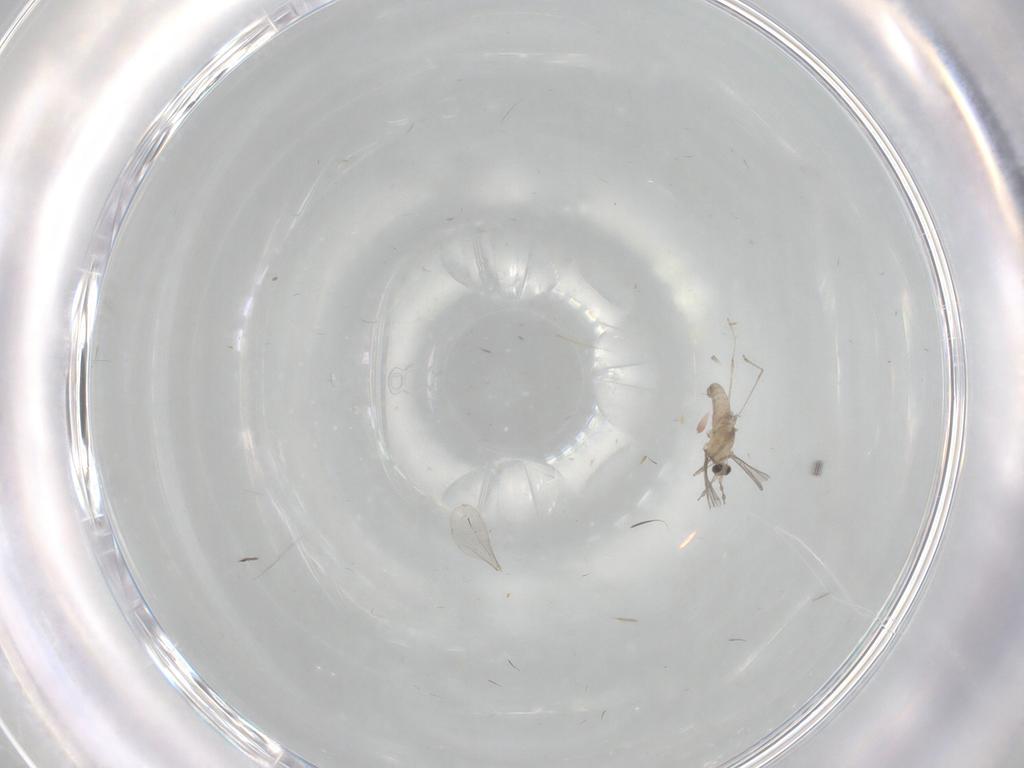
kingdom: Animalia
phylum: Arthropoda
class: Insecta
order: Diptera
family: Cecidomyiidae
